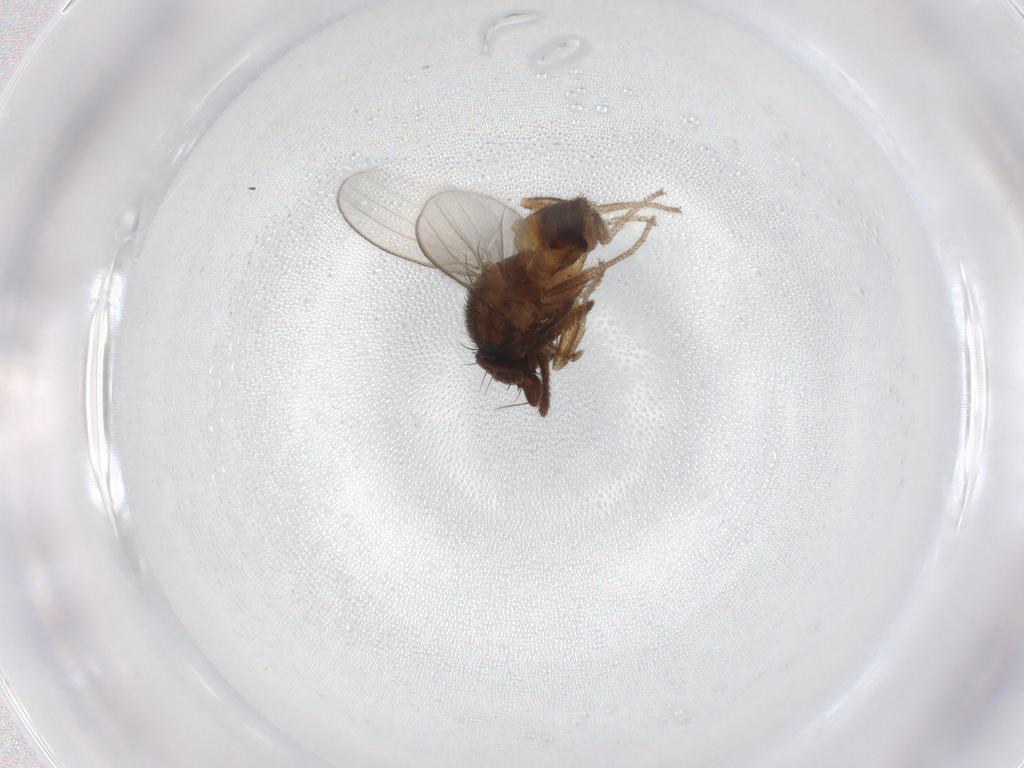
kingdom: Animalia
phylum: Arthropoda
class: Insecta
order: Diptera
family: Milichiidae
